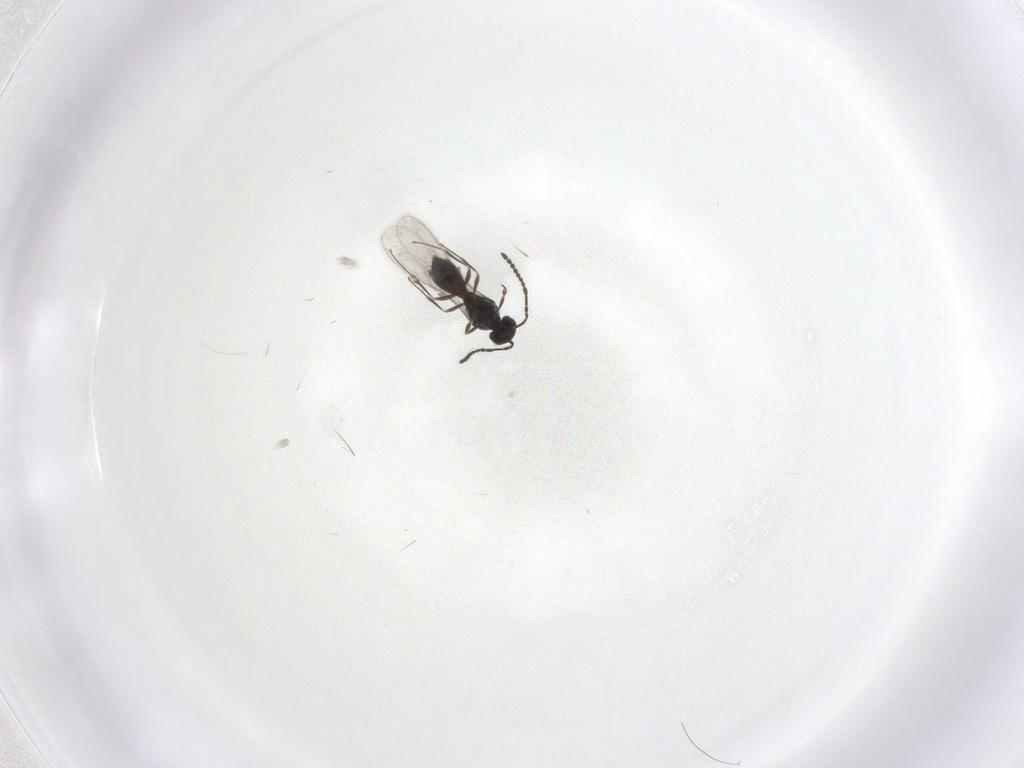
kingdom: Animalia
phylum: Arthropoda
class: Insecta
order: Hymenoptera
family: Scelionidae
